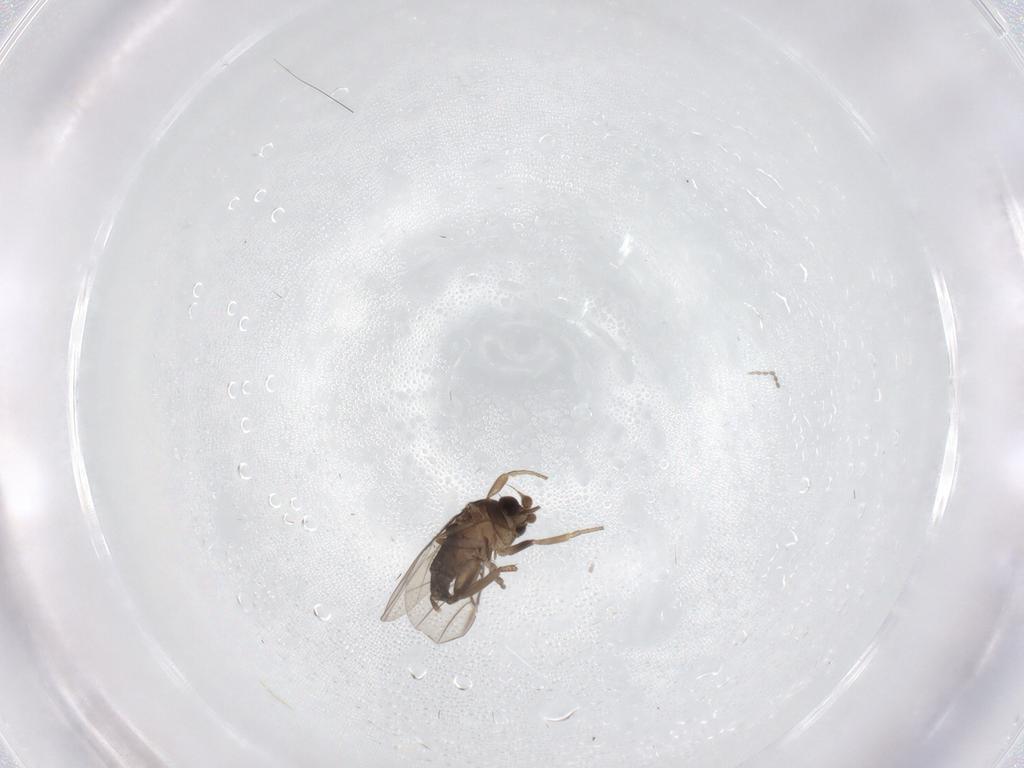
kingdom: Animalia
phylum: Arthropoda
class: Insecta
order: Diptera
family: Phoridae
